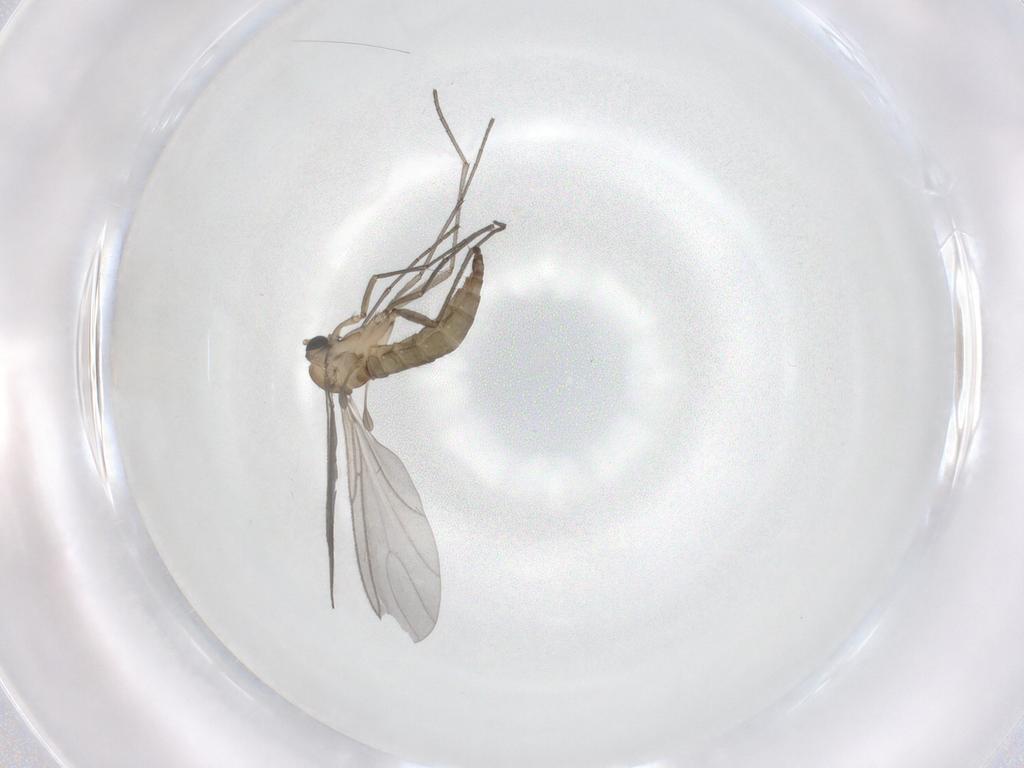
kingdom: Animalia
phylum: Arthropoda
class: Insecta
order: Diptera
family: Sciaridae
